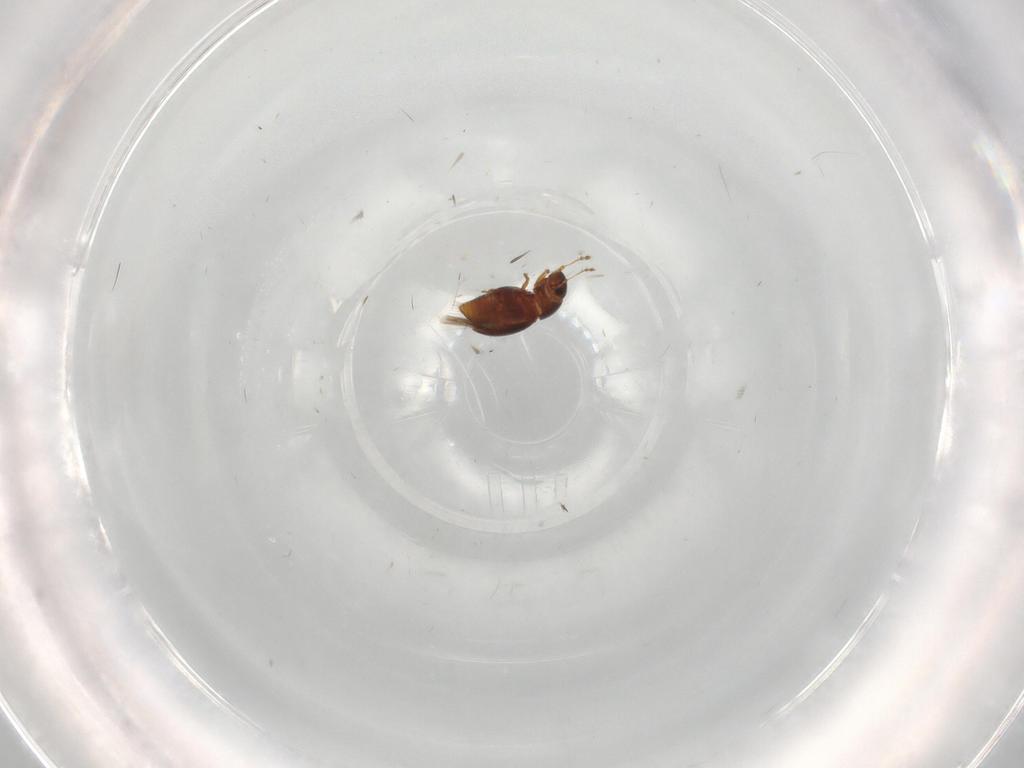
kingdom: Animalia
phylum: Arthropoda
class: Insecta
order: Coleoptera
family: Ptiliidae
